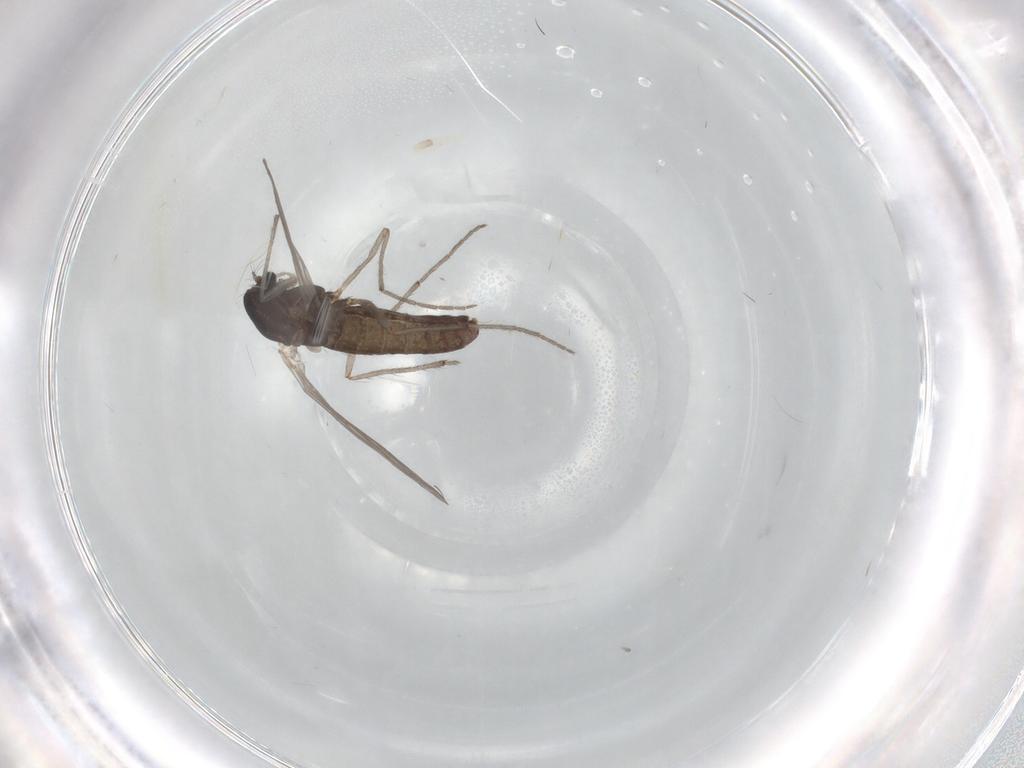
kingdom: Animalia
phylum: Arthropoda
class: Insecta
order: Diptera
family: Chironomidae
